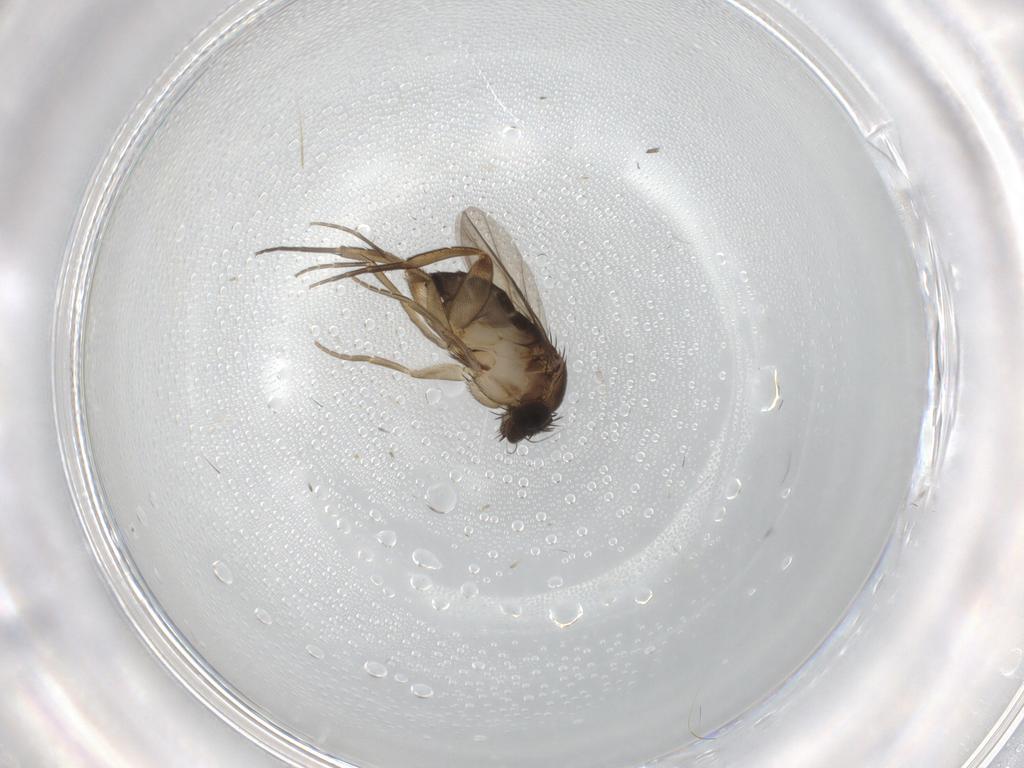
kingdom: Animalia
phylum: Arthropoda
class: Insecta
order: Diptera
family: Phoridae
